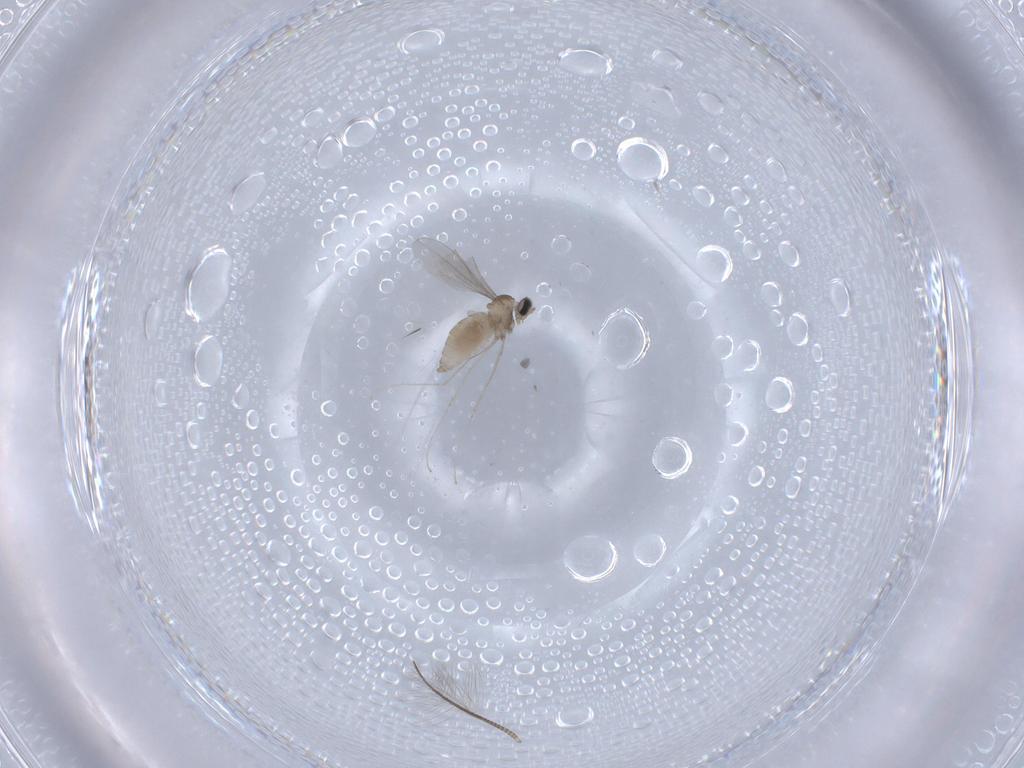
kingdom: Animalia
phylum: Arthropoda
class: Insecta
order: Diptera
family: Cecidomyiidae
